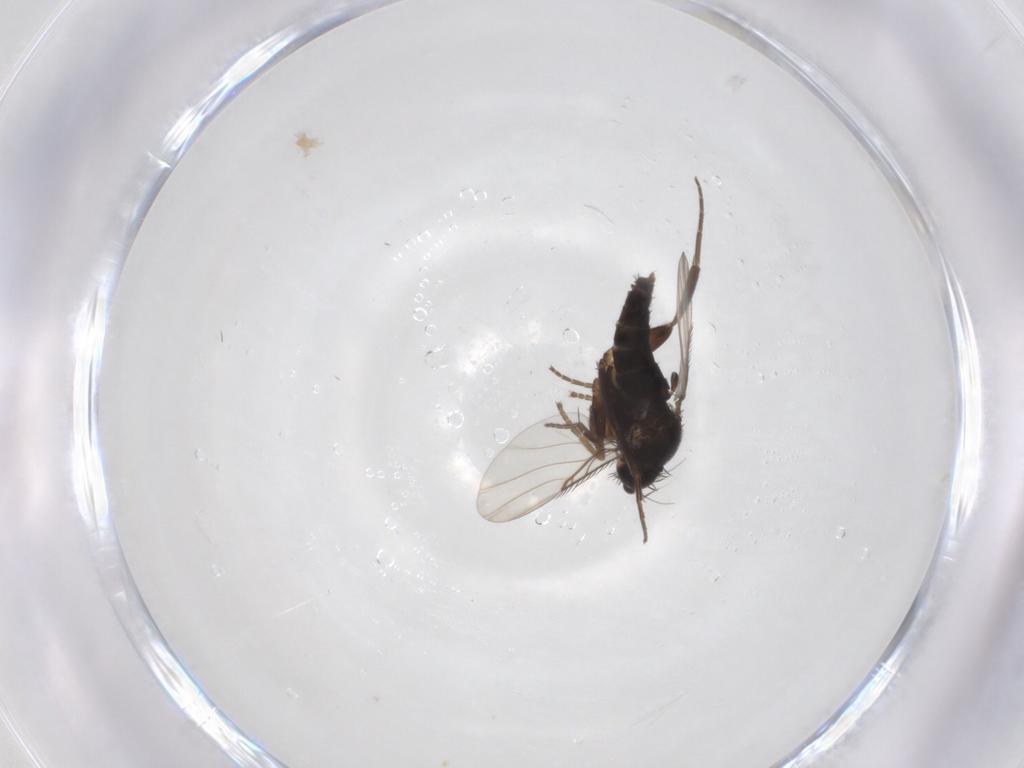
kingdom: Animalia
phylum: Arthropoda
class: Insecta
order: Diptera
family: Phoridae
